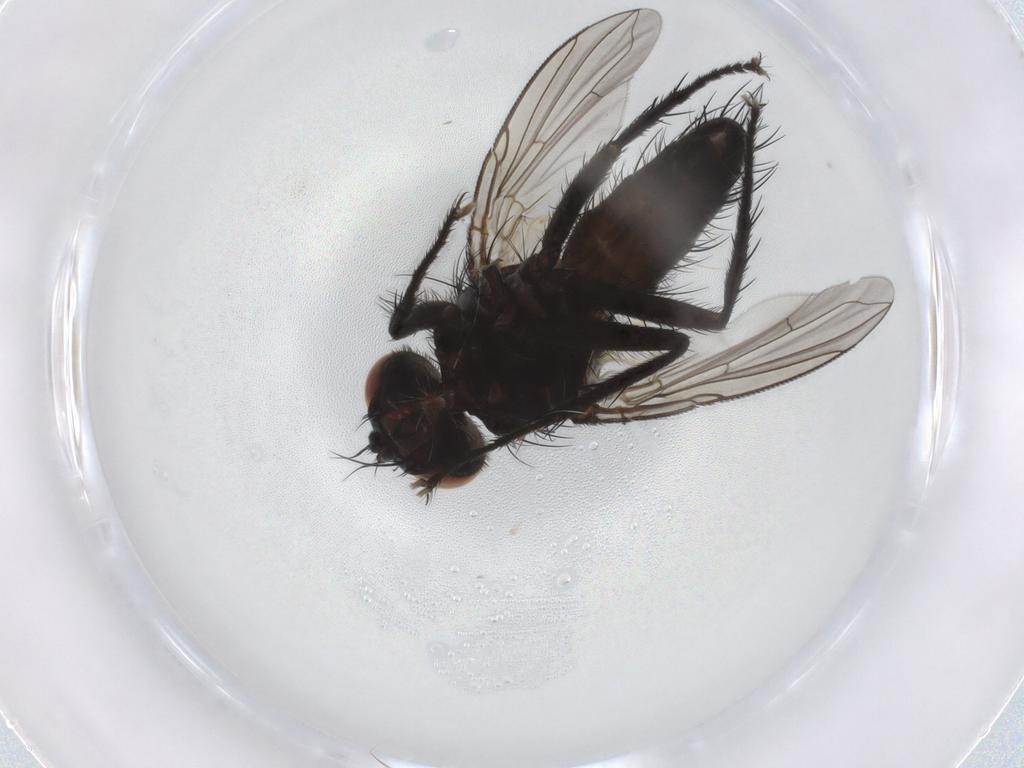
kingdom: Animalia
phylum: Arthropoda
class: Insecta
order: Diptera
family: Tachinidae
